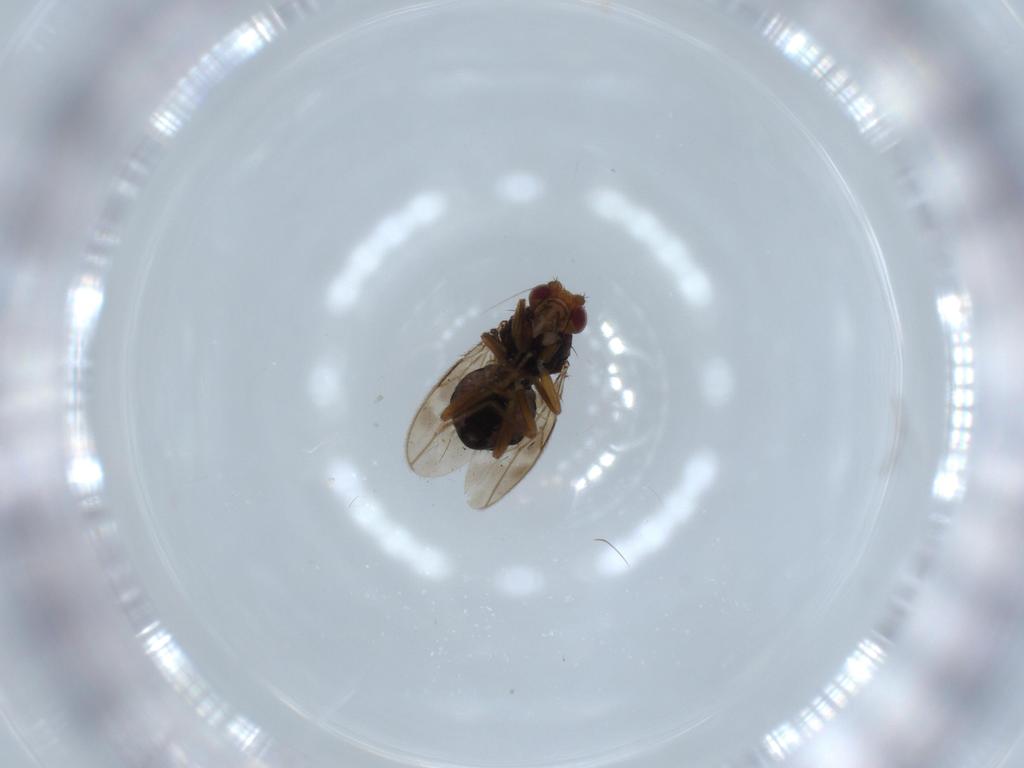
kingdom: Animalia
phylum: Arthropoda
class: Insecta
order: Diptera
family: Sphaeroceridae
